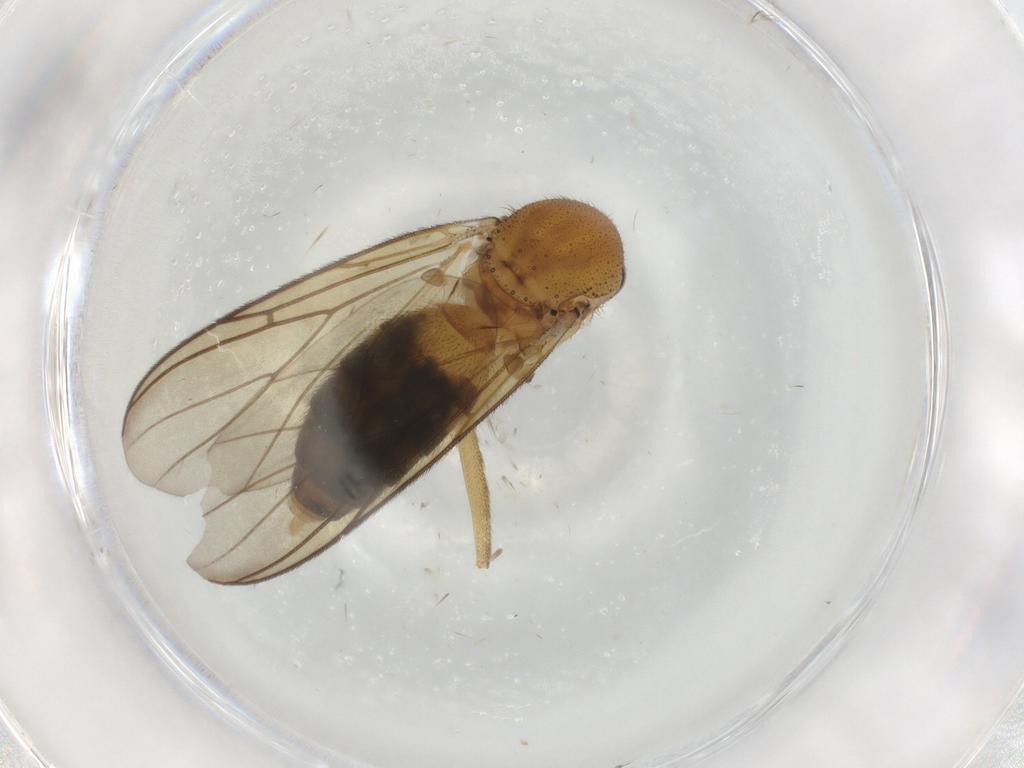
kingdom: Animalia
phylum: Arthropoda
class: Insecta
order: Diptera
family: Mycetophilidae
